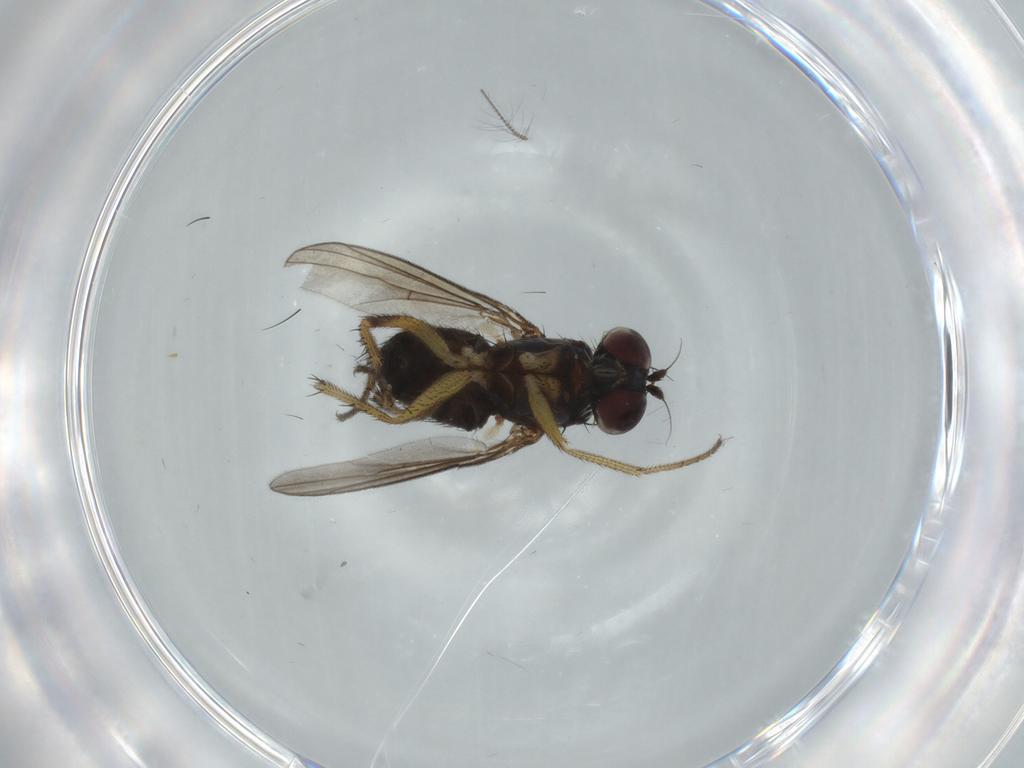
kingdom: Animalia
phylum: Arthropoda
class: Insecta
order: Diptera
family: Dolichopodidae
